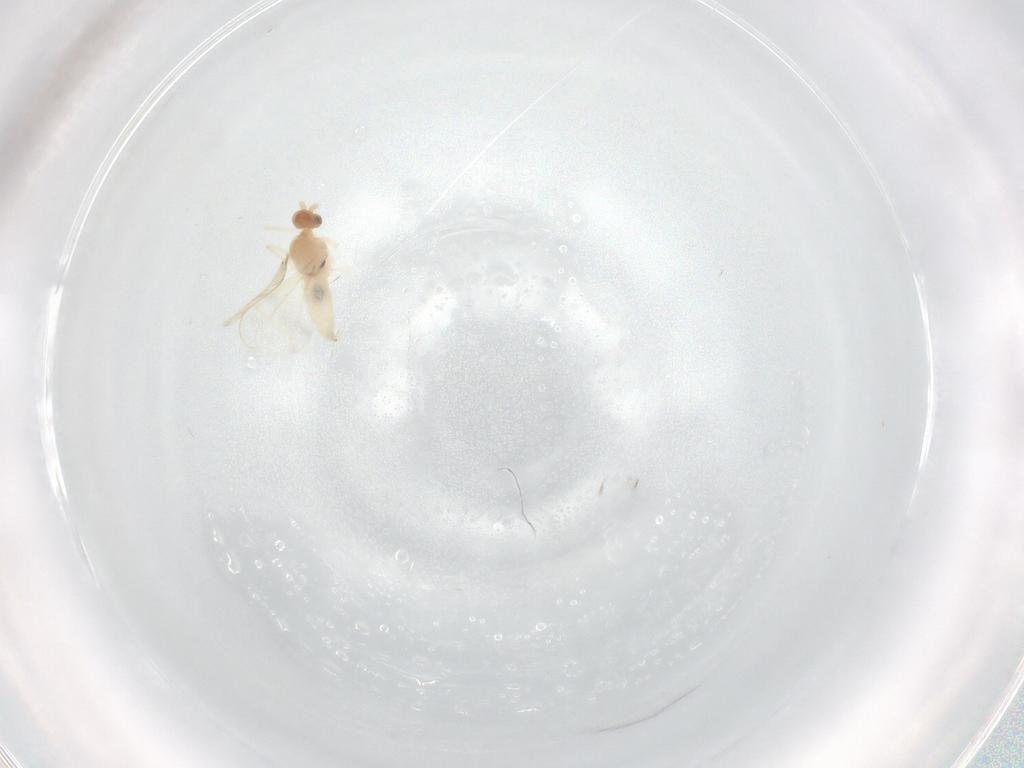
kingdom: Animalia
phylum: Arthropoda
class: Insecta
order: Diptera
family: Cecidomyiidae
